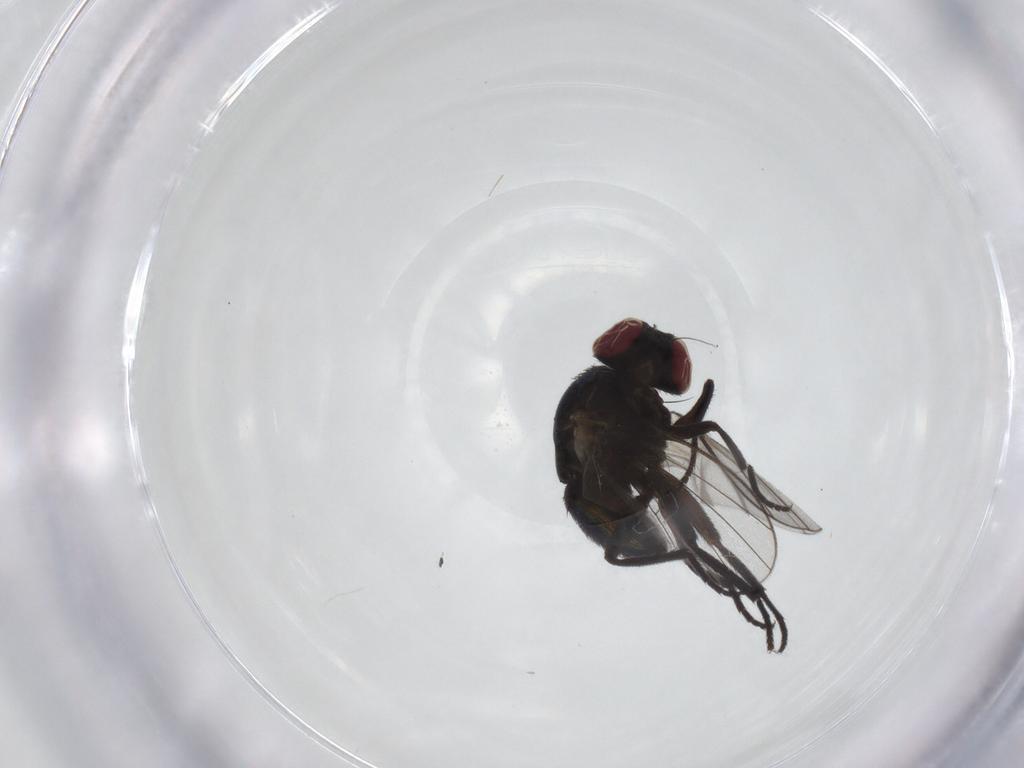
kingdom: Animalia
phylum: Arthropoda
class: Insecta
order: Diptera
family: Agromyzidae
